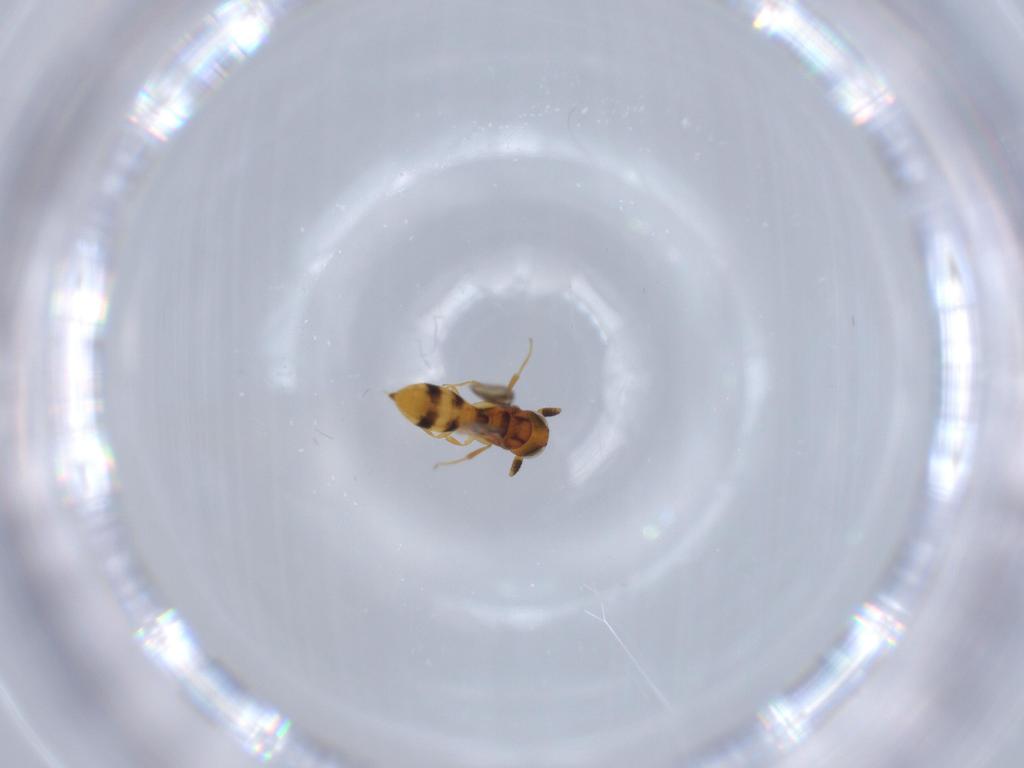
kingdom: Animalia
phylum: Arthropoda
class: Insecta
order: Hymenoptera
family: Scelionidae
